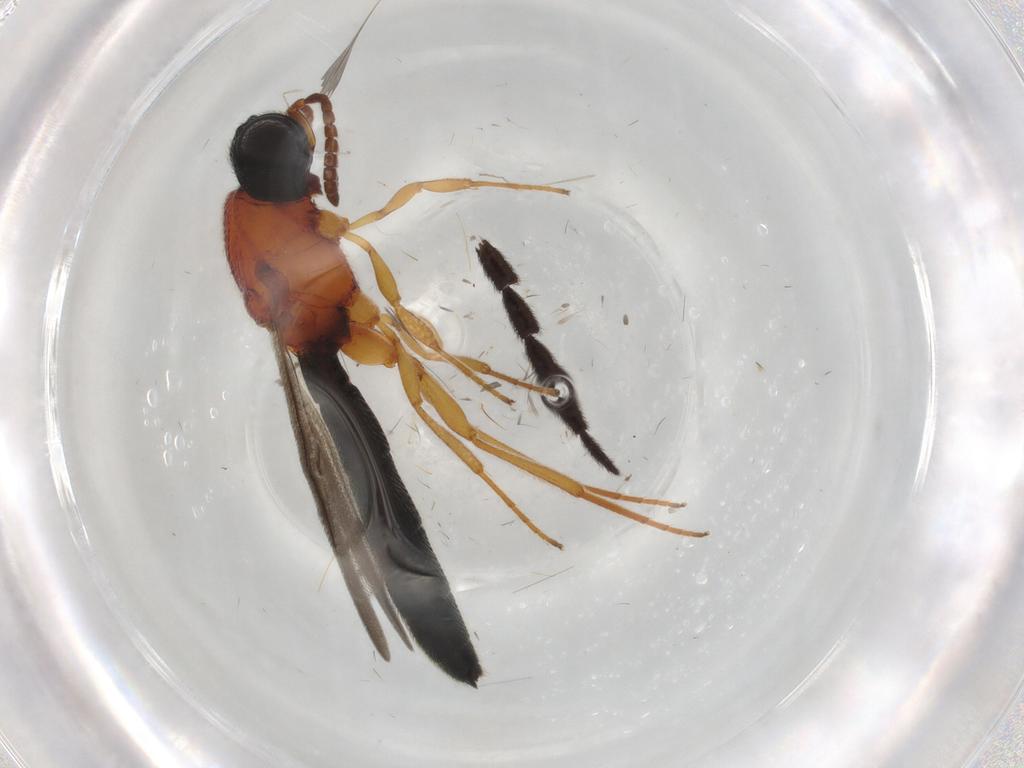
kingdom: Animalia
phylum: Arthropoda
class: Insecta
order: Hymenoptera
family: Scelionidae
